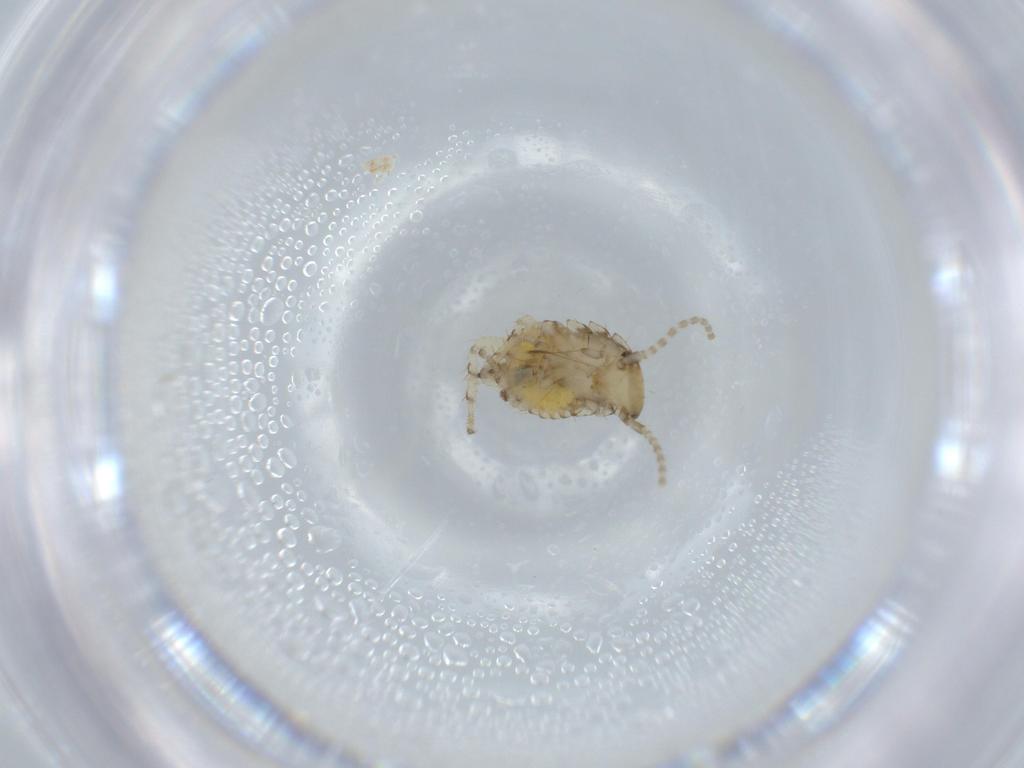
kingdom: Animalia
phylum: Arthropoda
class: Insecta
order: Blattodea
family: Ectobiidae
